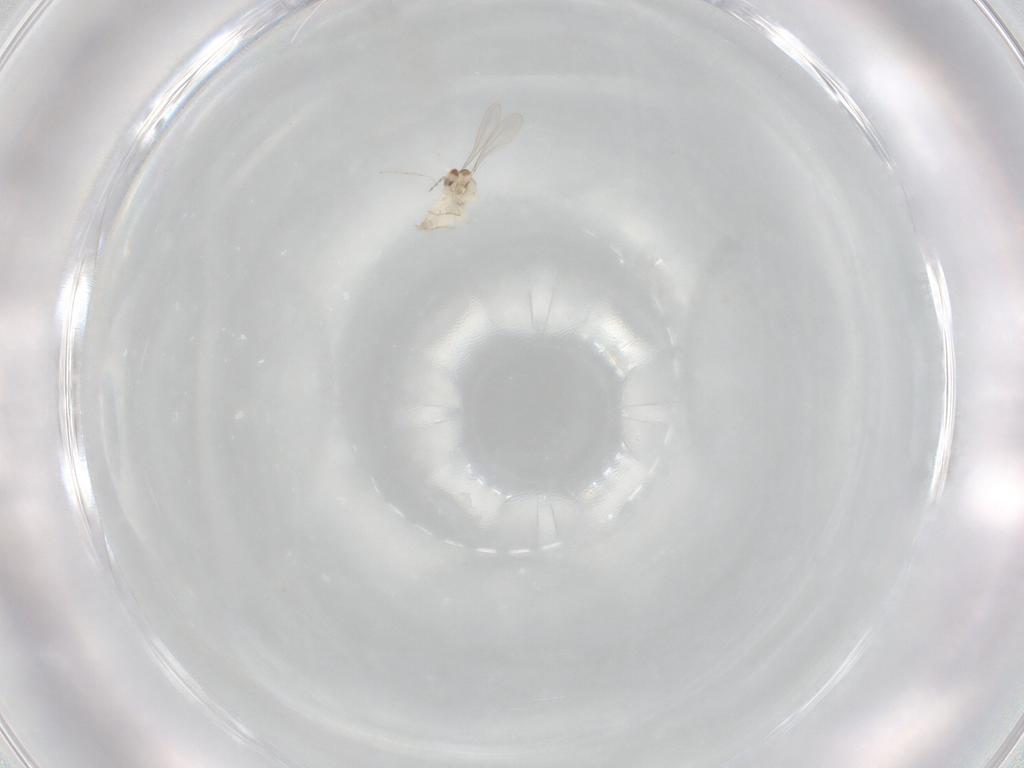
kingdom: Animalia
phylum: Arthropoda
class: Insecta
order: Diptera
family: Cecidomyiidae
